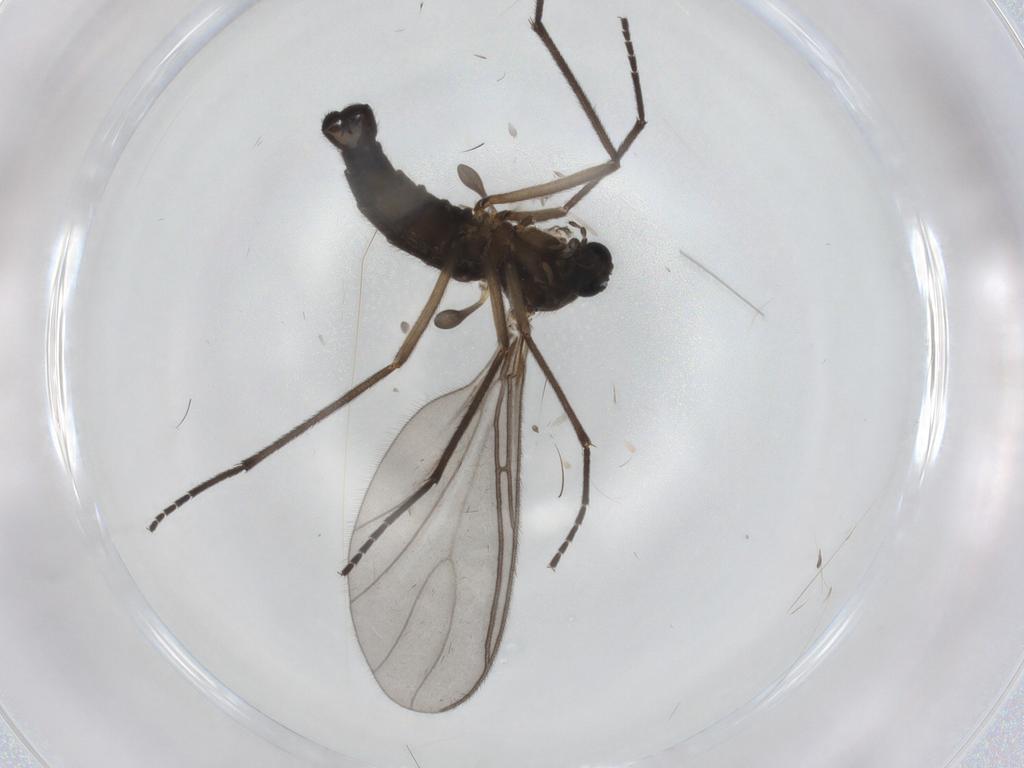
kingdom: Animalia
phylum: Arthropoda
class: Insecta
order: Diptera
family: Sciaridae
